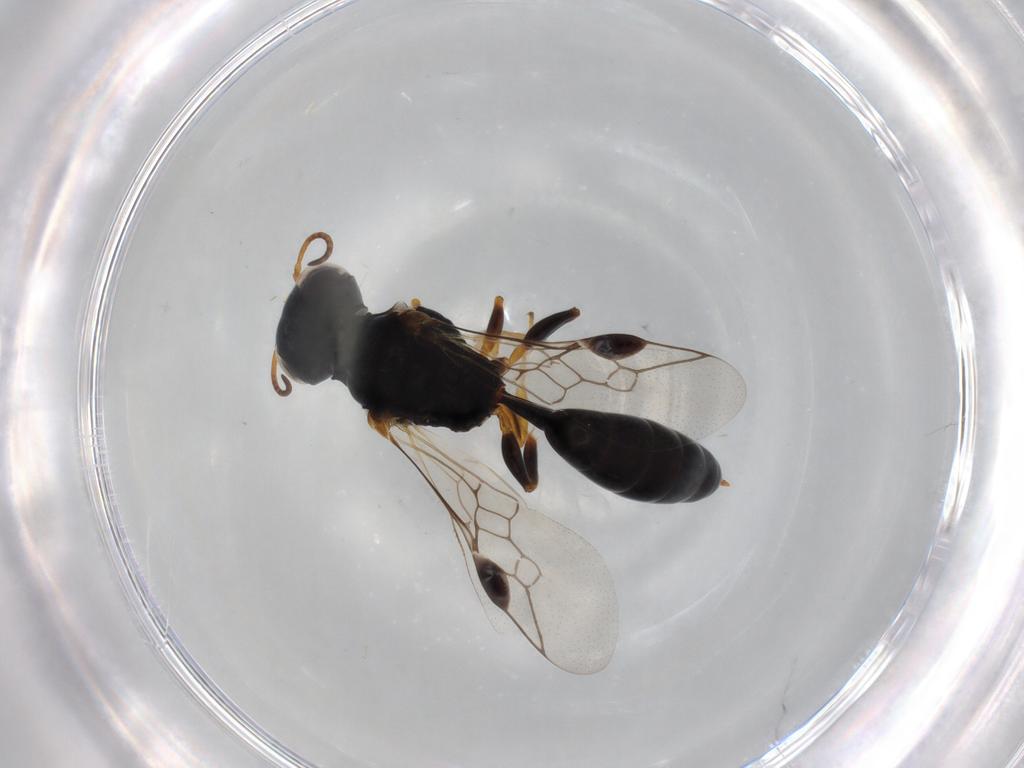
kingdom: Animalia
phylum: Arthropoda
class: Insecta
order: Hymenoptera
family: Pemphredonidae
